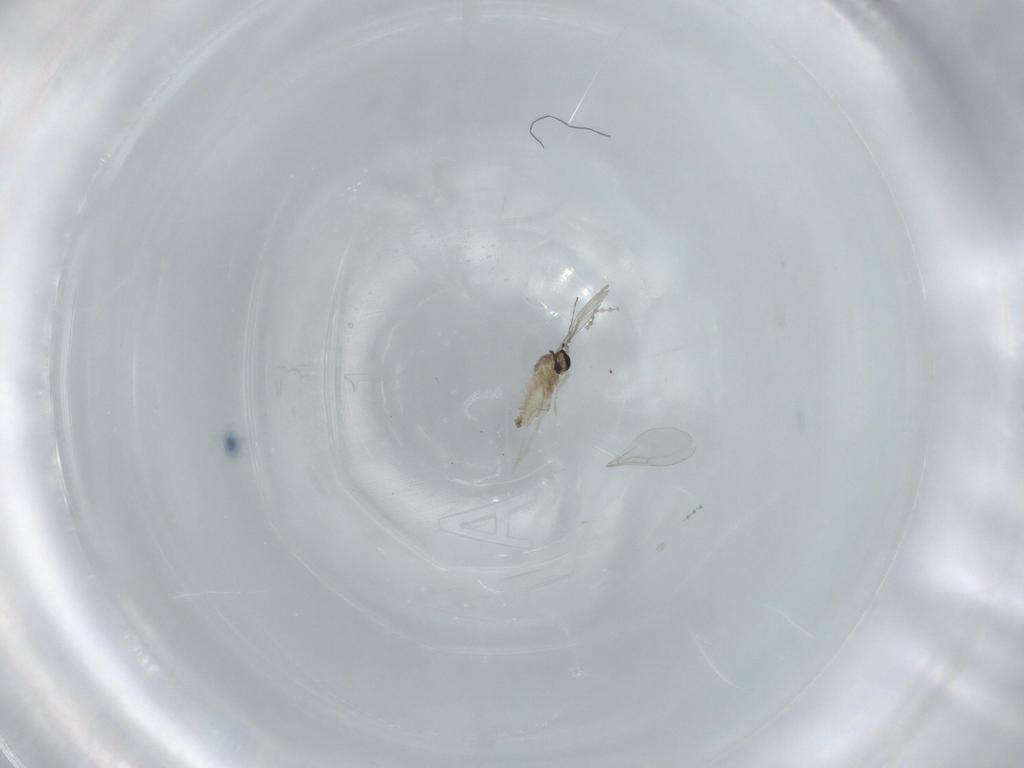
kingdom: Animalia
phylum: Arthropoda
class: Insecta
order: Diptera
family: Cecidomyiidae
